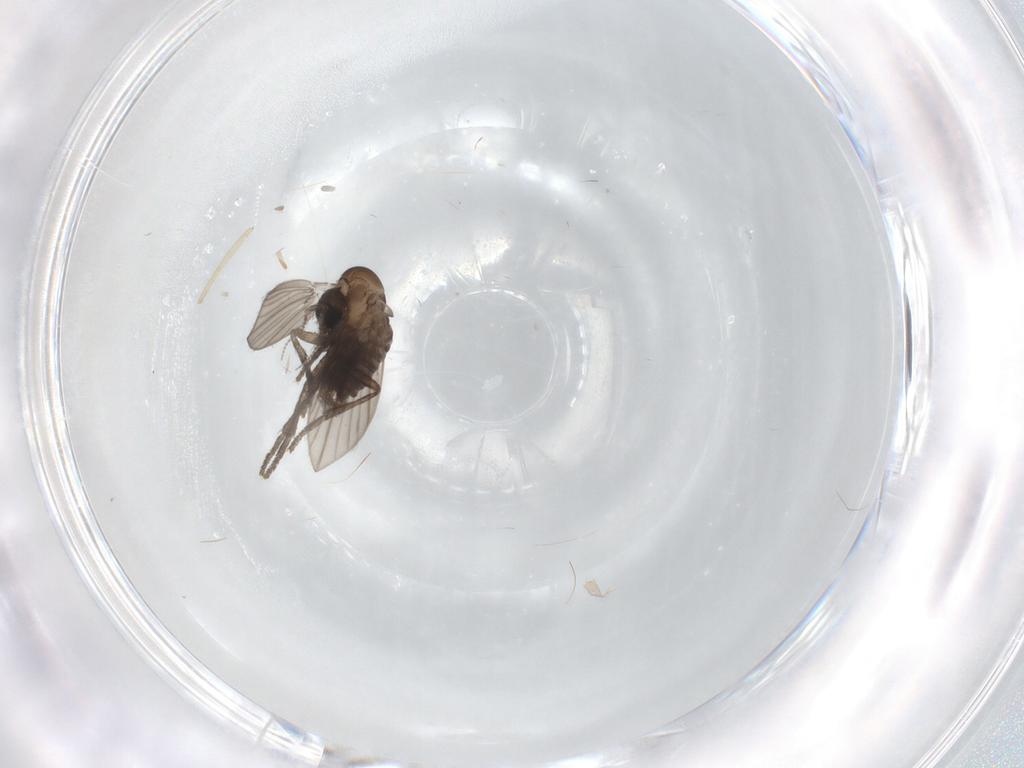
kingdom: Animalia
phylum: Arthropoda
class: Insecta
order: Diptera
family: Psychodidae
